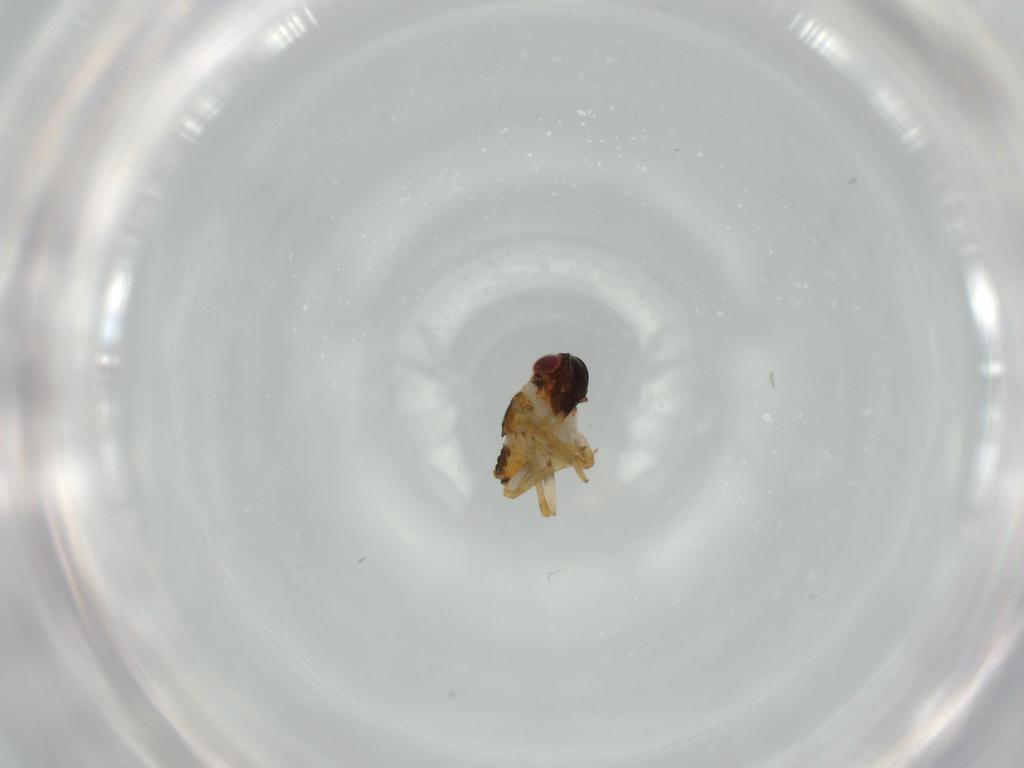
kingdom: Animalia
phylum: Arthropoda
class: Insecta
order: Hemiptera
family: Issidae
